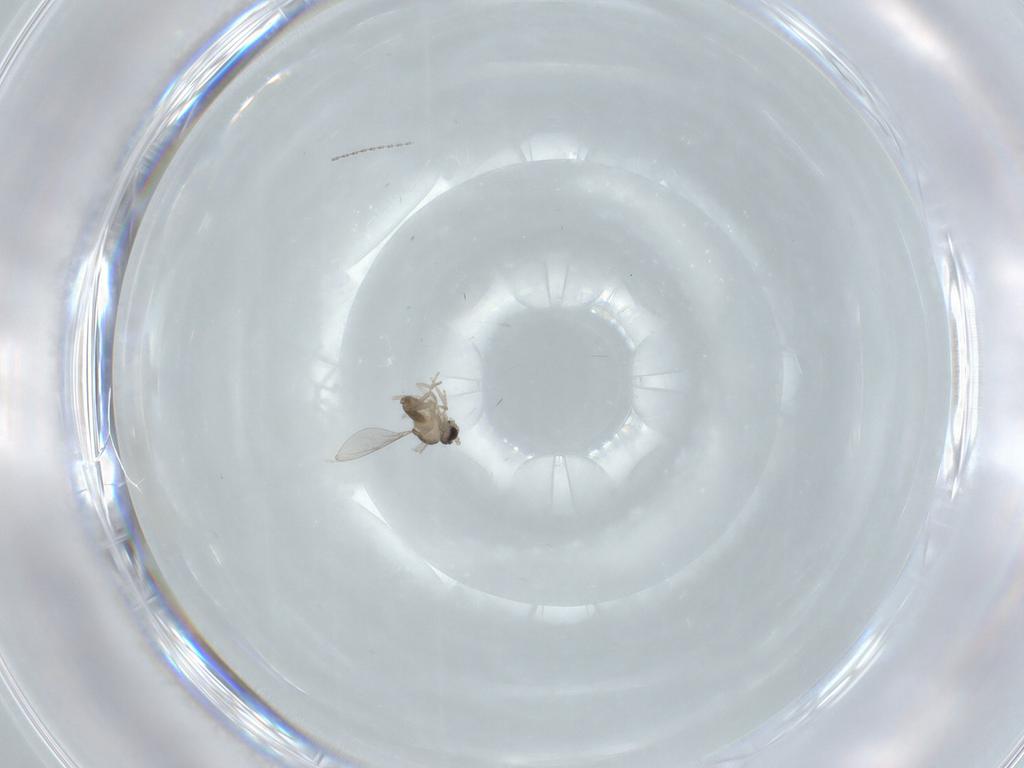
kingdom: Animalia
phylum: Arthropoda
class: Insecta
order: Diptera
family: Cecidomyiidae
